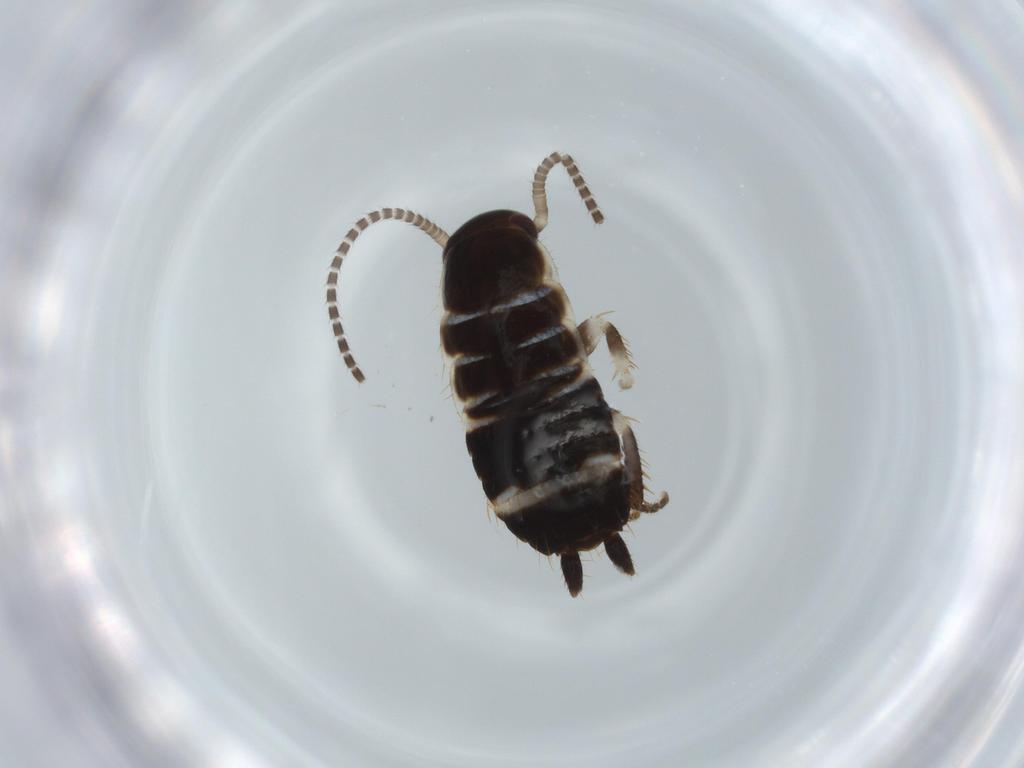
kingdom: Animalia
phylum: Arthropoda
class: Insecta
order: Blattodea
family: Ectobiidae
